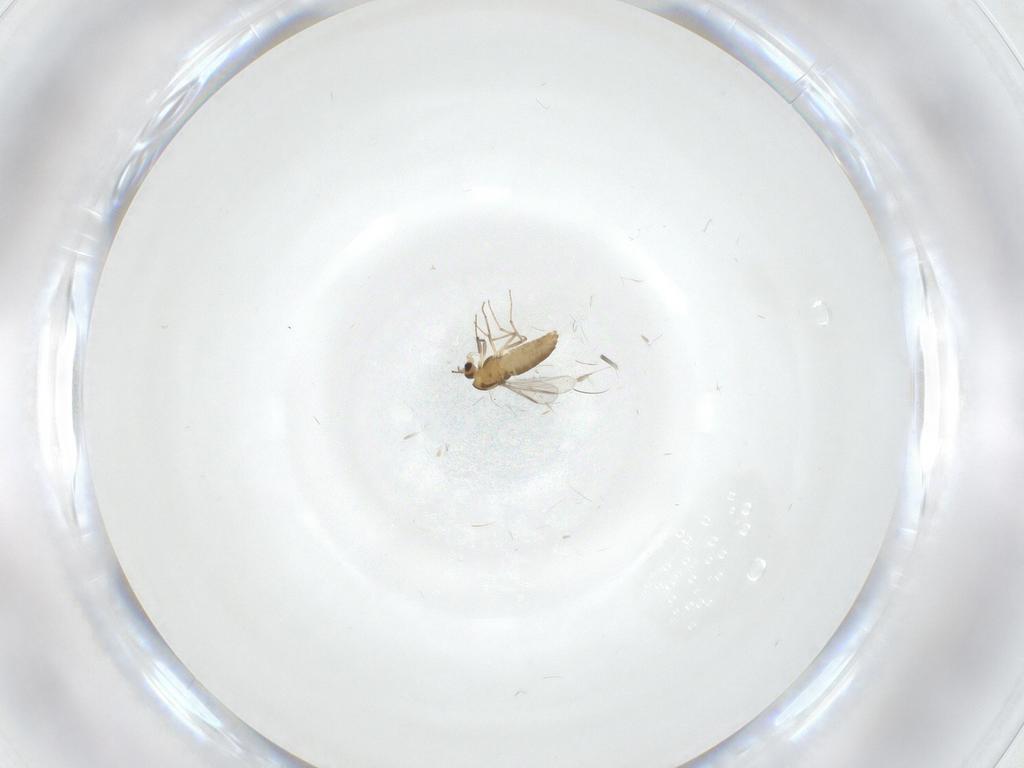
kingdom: Animalia
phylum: Arthropoda
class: Insecta
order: Diptera
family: Chironomidae
